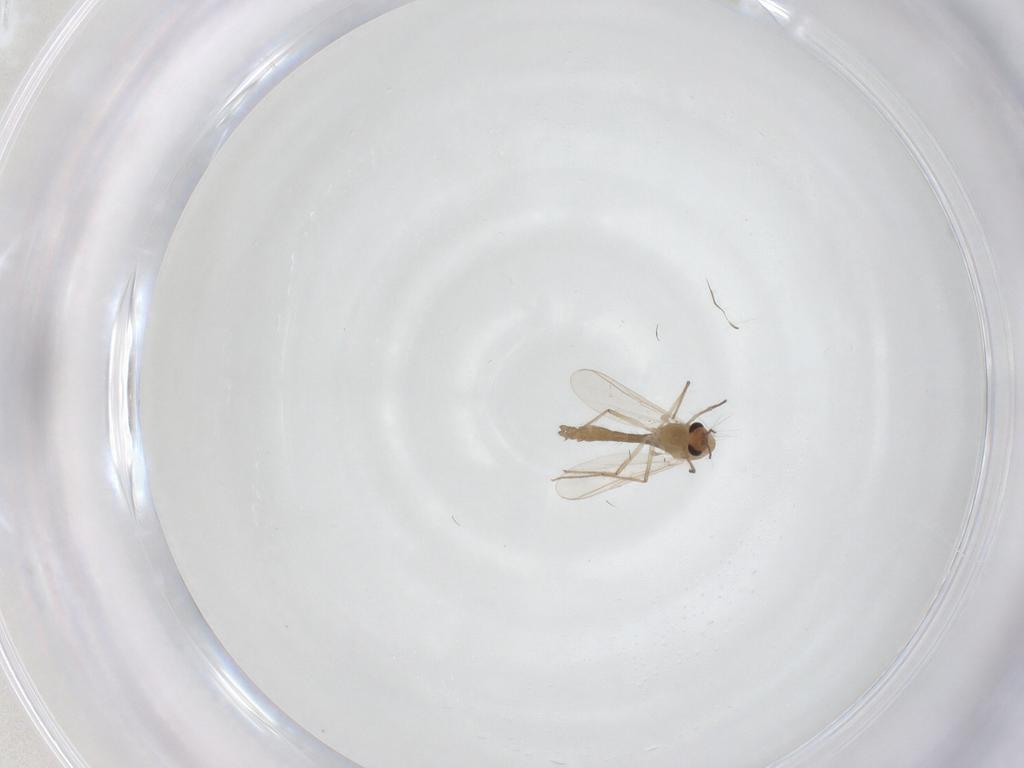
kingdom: Animalia
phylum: Arthropoda
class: Insecta
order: Diptera
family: Chironomidae
